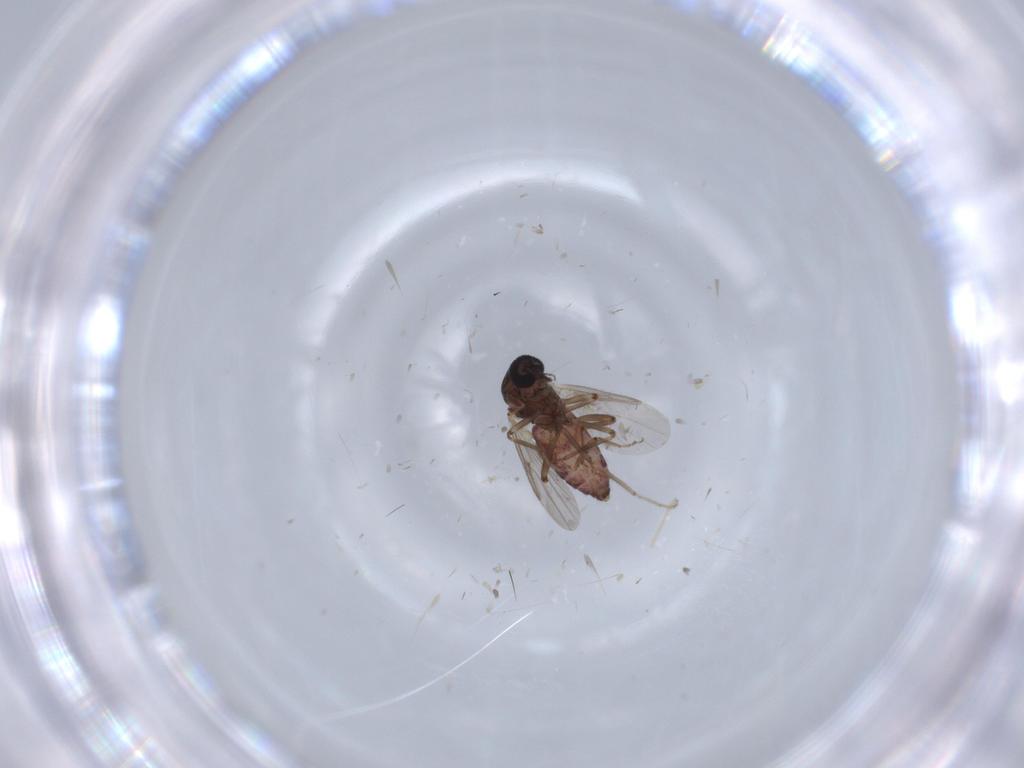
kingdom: Animalia
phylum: Arthropoda
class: Insecta
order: Diptera
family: Ceratopogonidae
